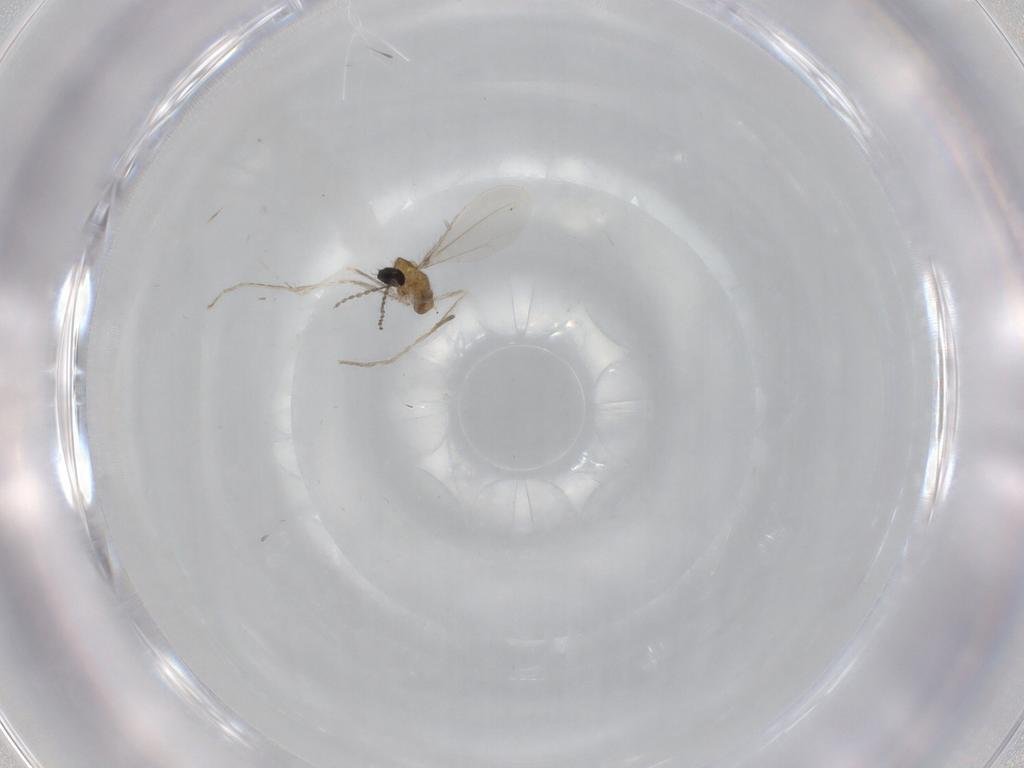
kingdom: Animalia
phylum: Arthropoda
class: Insecta
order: Diptera
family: Cecidomyiidae
